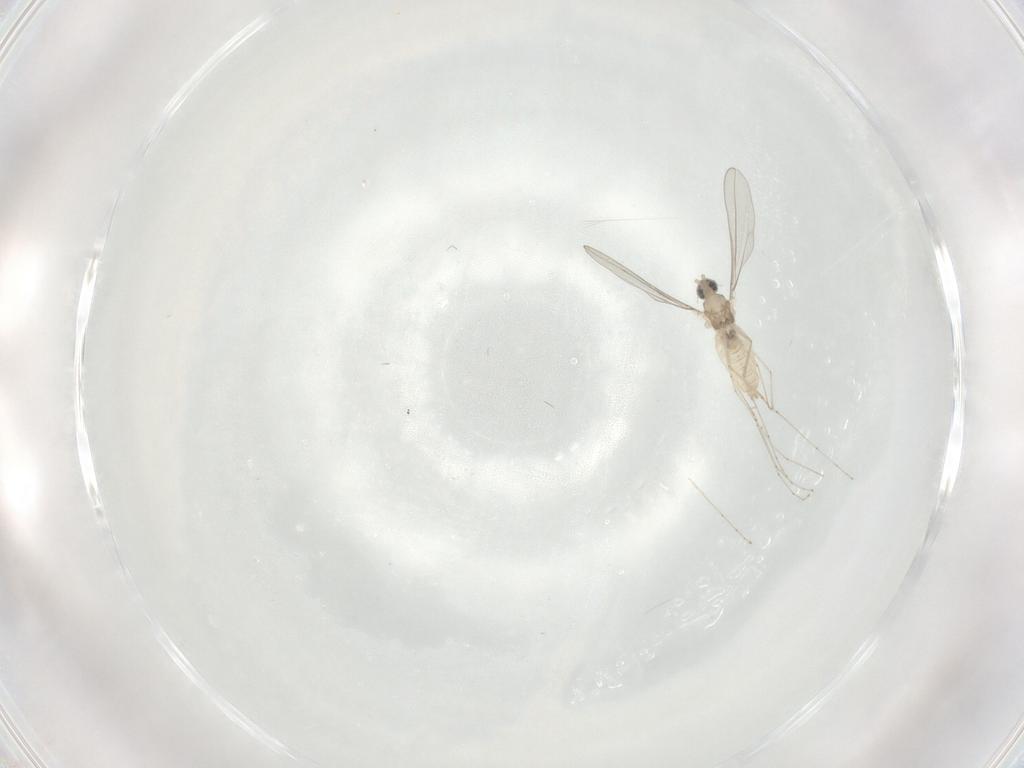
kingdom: Animalia
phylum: Arthropoda
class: Insecta
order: Diptera
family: Cecidomyiidae
